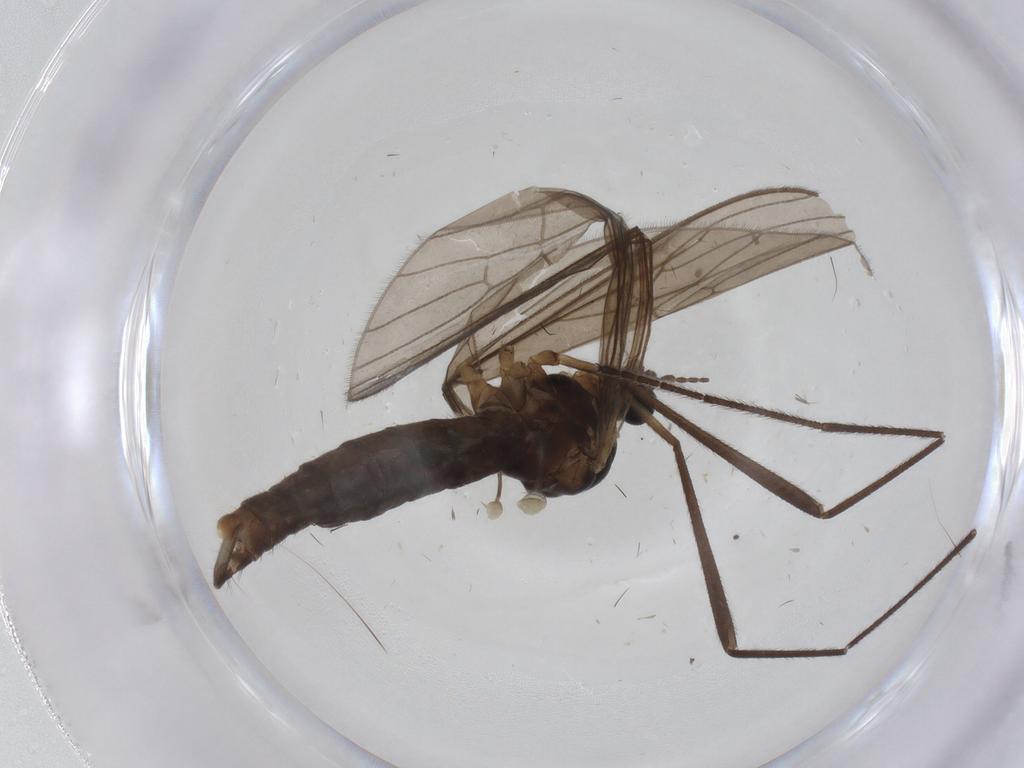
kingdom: Animalia
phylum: Arthropoda
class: Insecta
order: Diptera
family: Limoniidae
